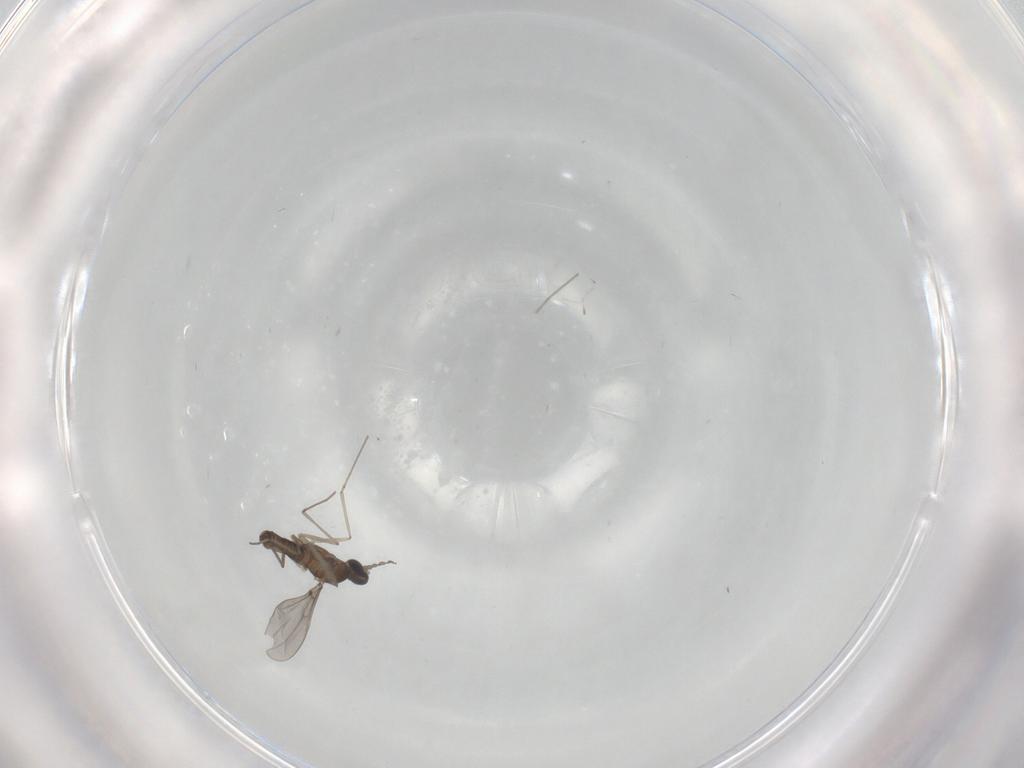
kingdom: Animalia
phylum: Arthropoda
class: Insecta
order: Diptera
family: Cecidomyiidae
